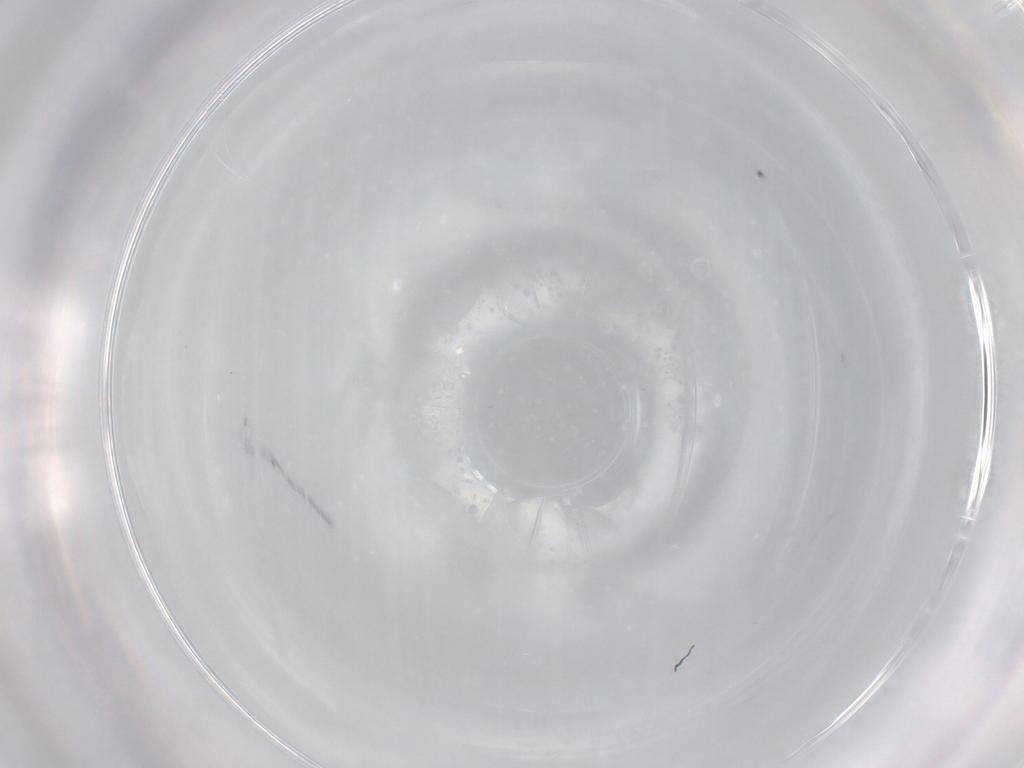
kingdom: Animalia
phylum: Arthropoda
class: Insecta
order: Hemiptera
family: Aleyrodidae
